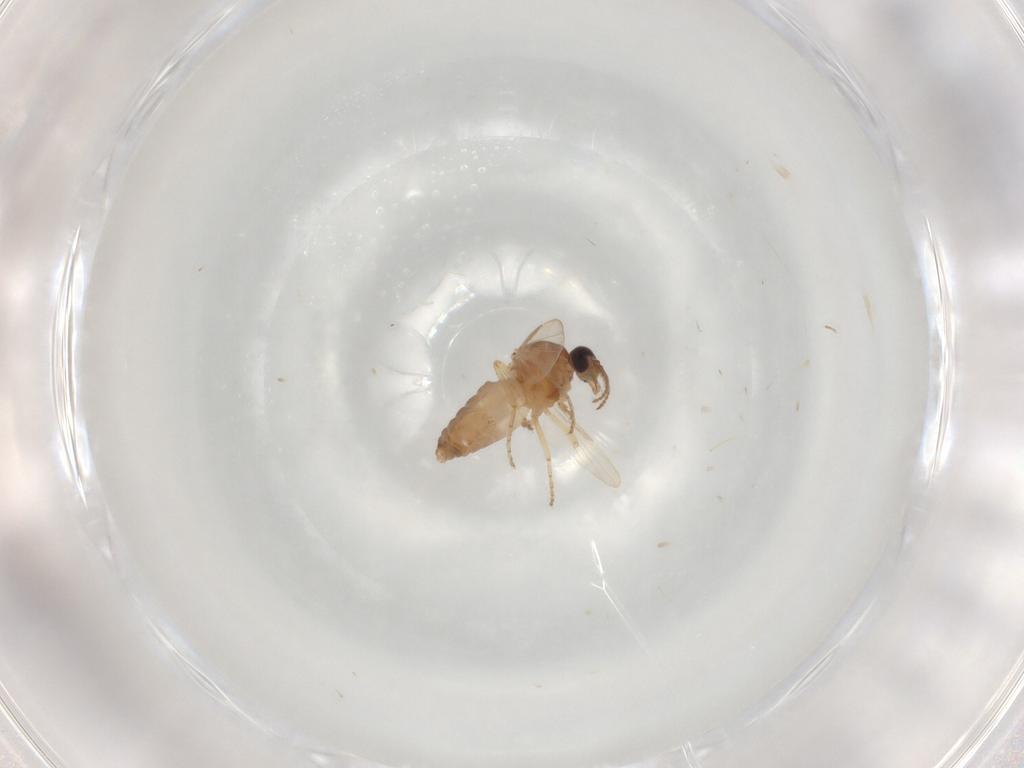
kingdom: Animalia
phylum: Arthropoda
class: Insecta
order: Diptera
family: Ceratopogonidae
